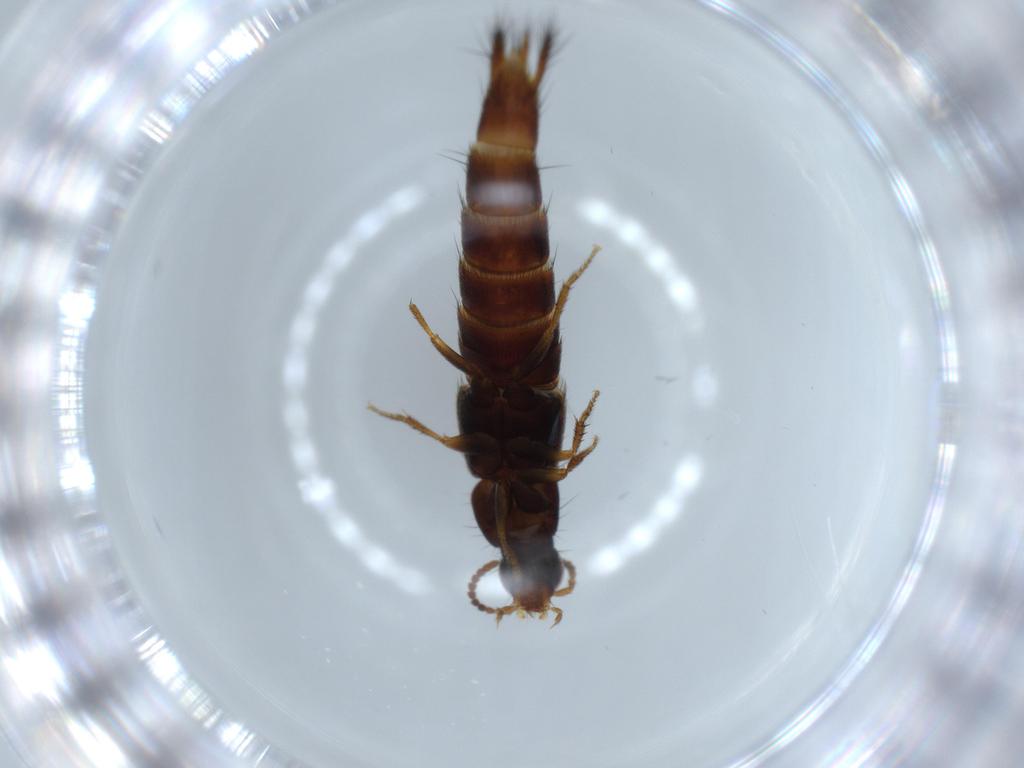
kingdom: Animalia
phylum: Arthropoda
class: Insecta
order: Coleoptera
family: Staphylinidae
